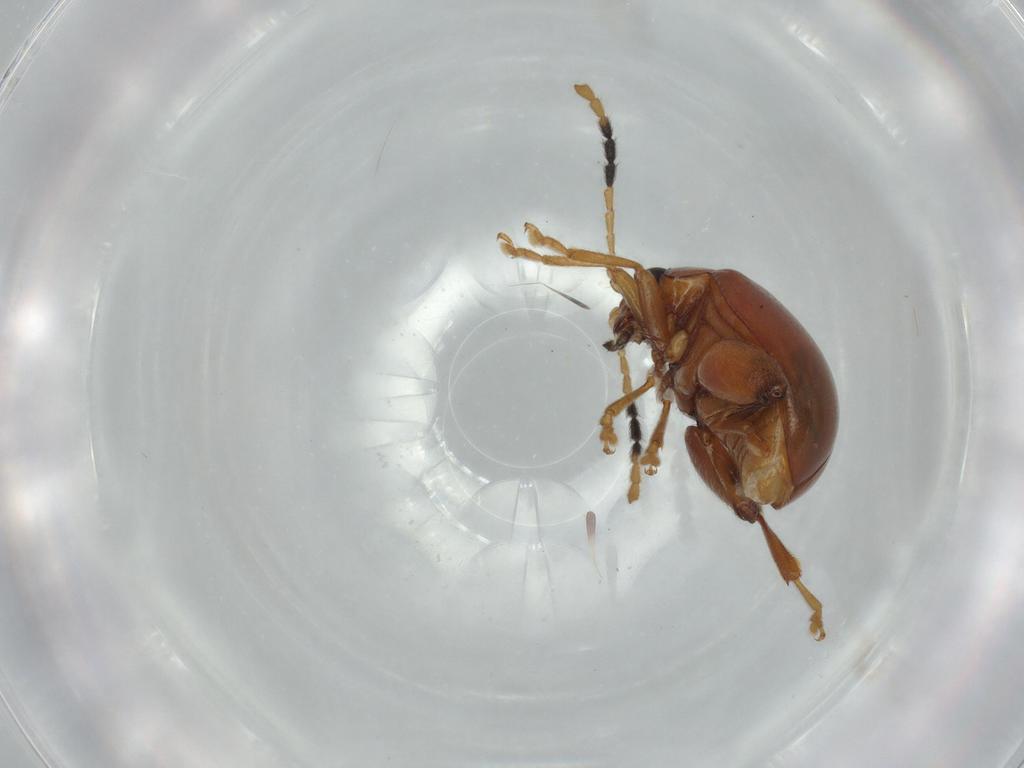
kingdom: Animalia
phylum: Arthropoda
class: Insecta
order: Coleoptera
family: Chrysomelidae
